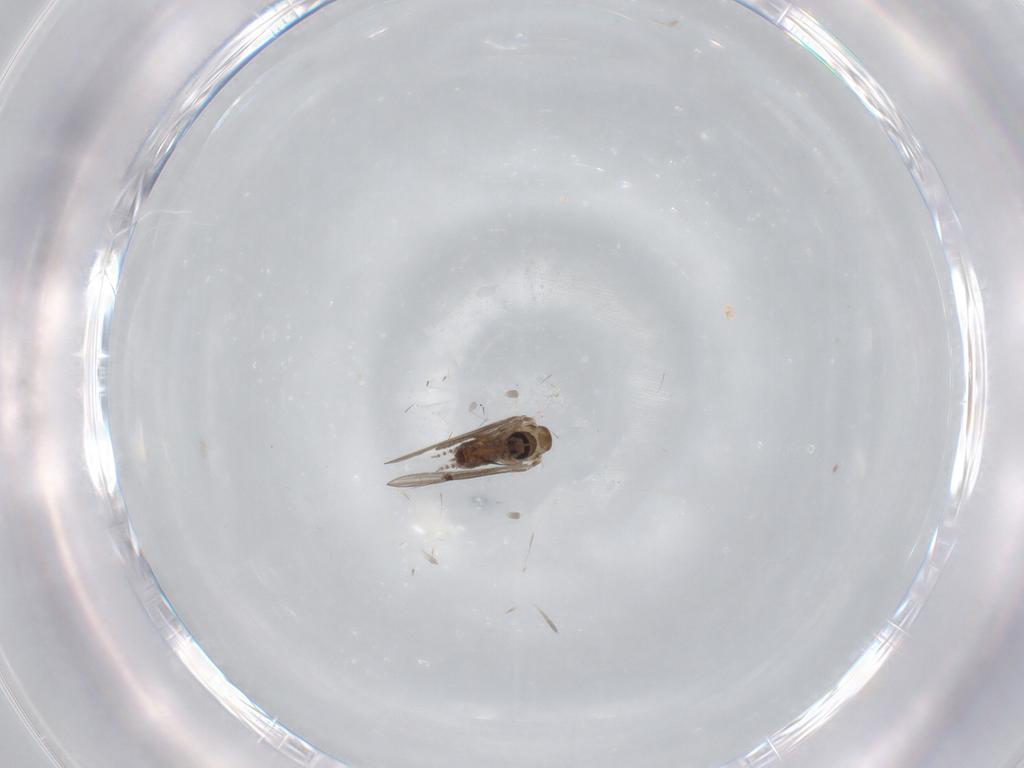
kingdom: Animalia
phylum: Arthropoda
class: Insecta
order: Diptera
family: Psychodidae
